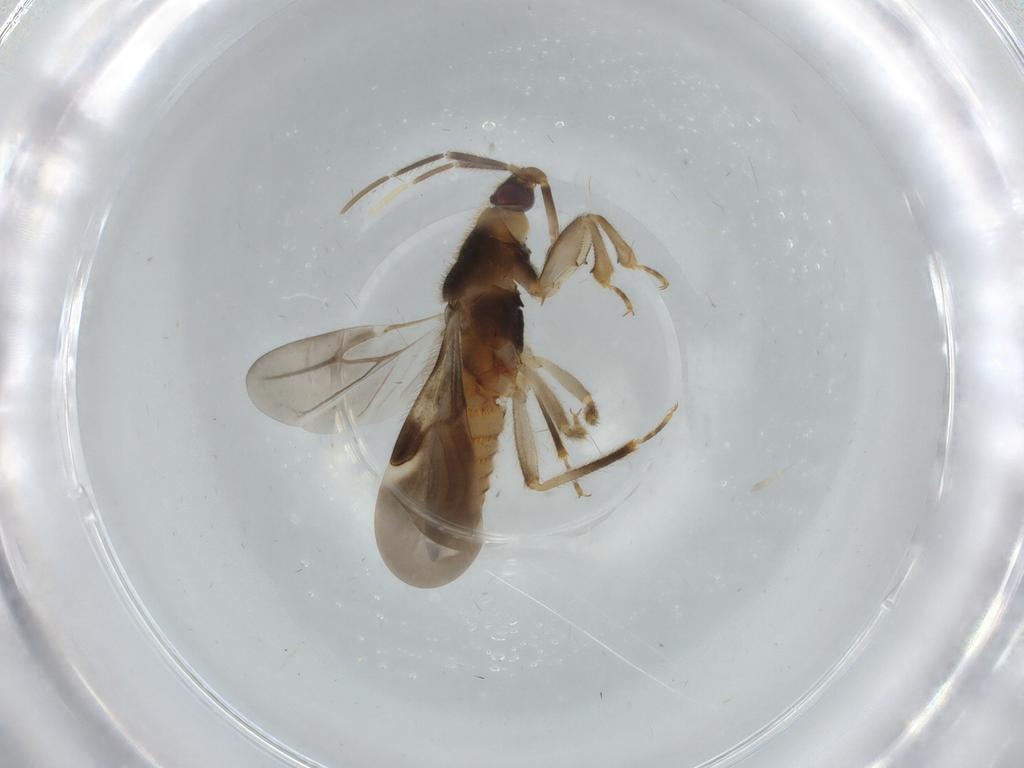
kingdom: Animalia
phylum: Arthropoda
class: Insecta
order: Hemiptera
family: Nabidae
